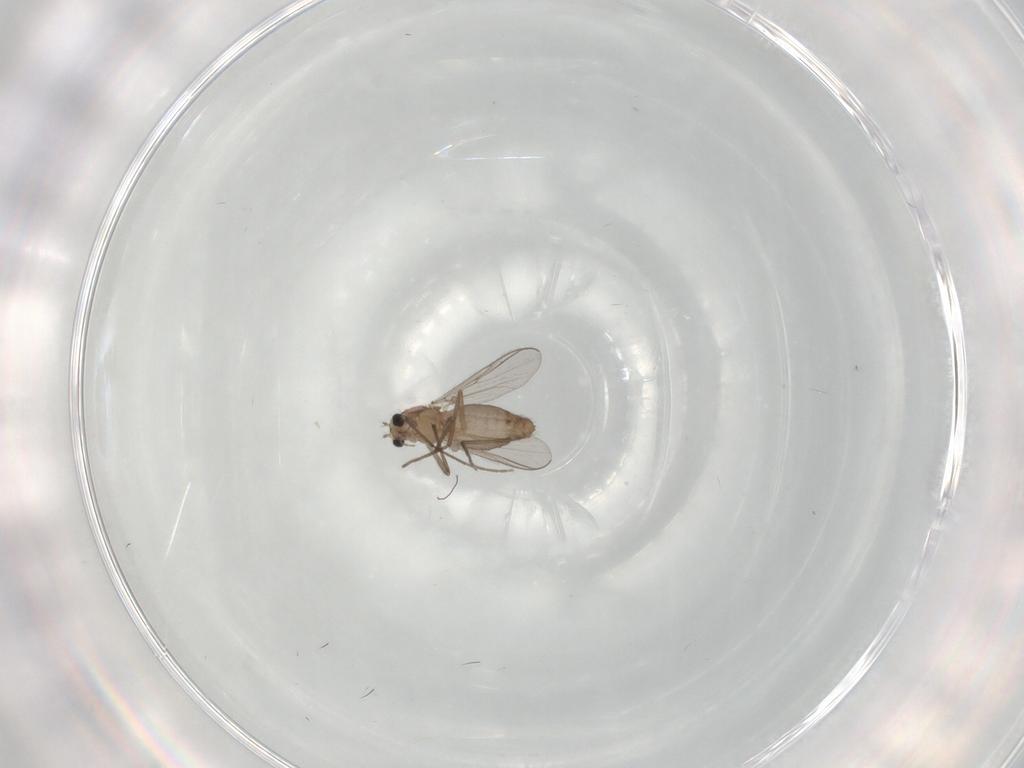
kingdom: Animalia
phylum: Arthropoda
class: Insecta
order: Diptera
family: Chironomidae
